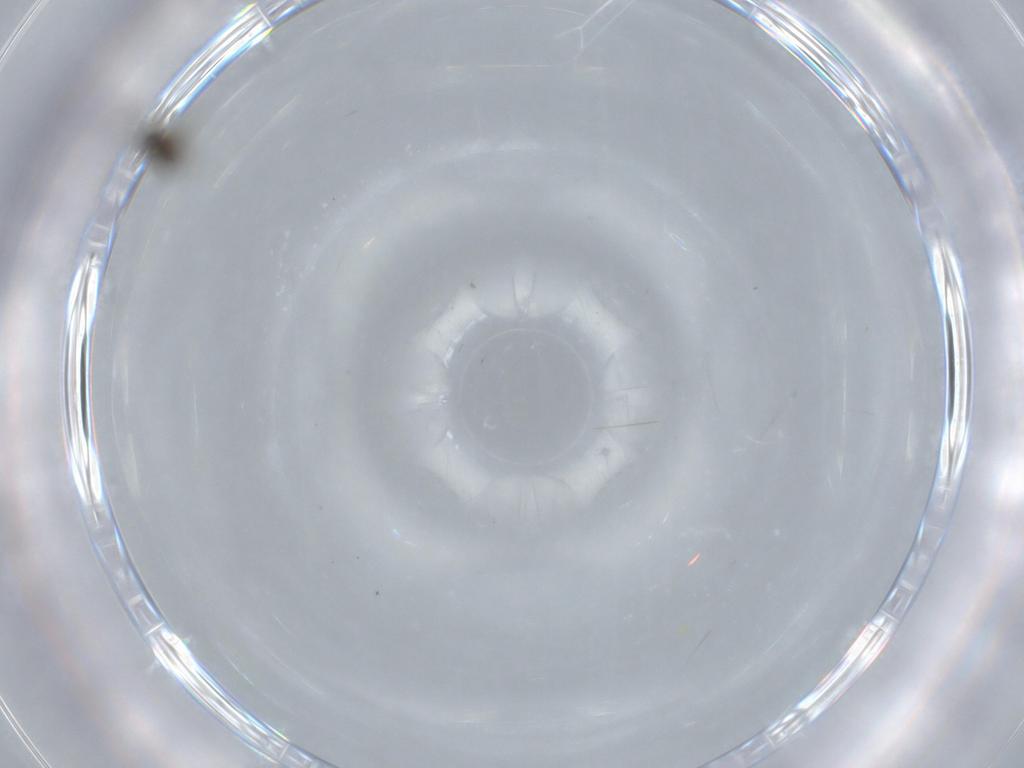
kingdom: Animalia
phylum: Arthropoda
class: Insecta
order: Diptera
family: Phoridae
